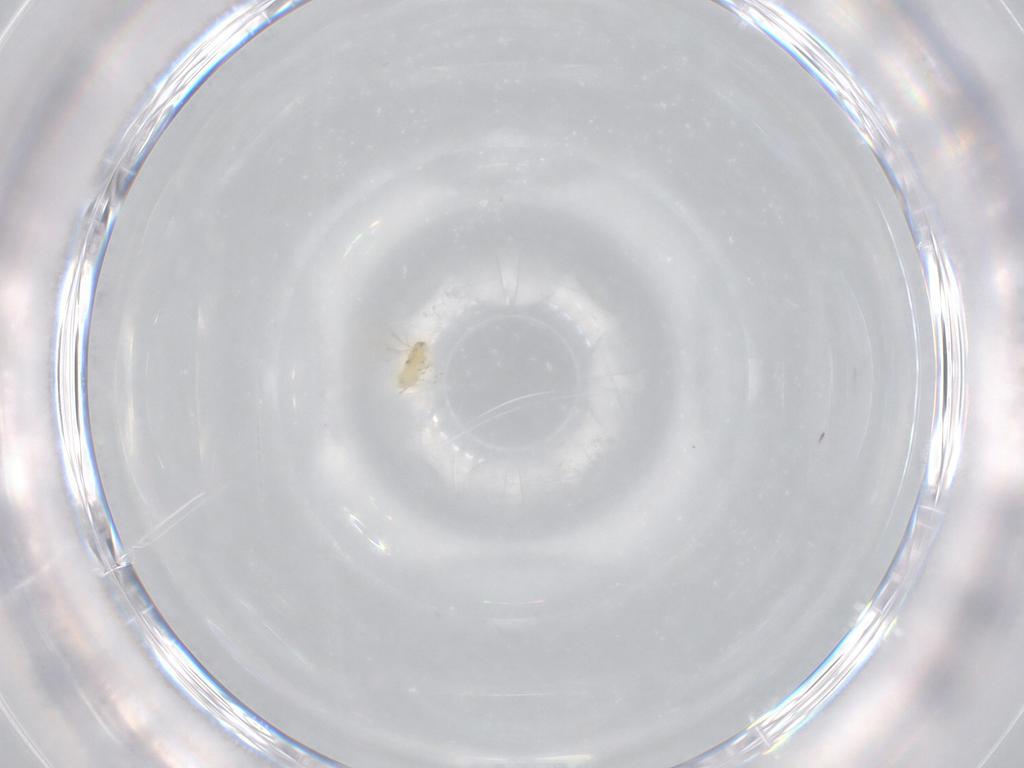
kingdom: Animalia
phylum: Arthropoda
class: Insecta
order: Hymenoptera
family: Aphelinidae
